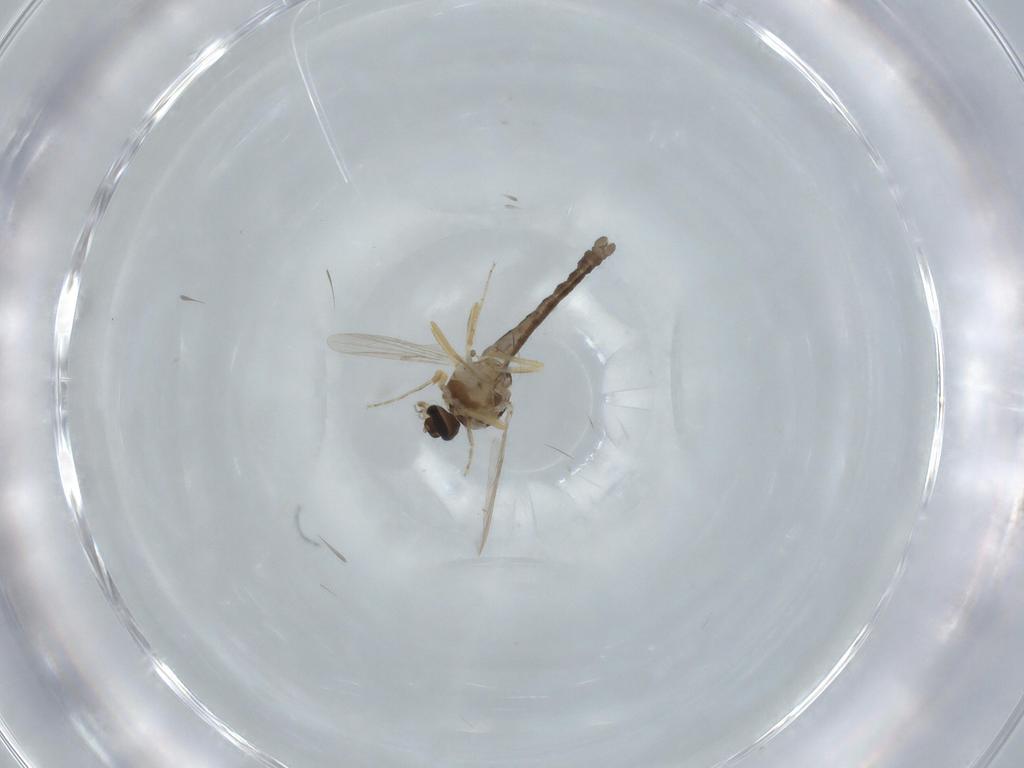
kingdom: Animalia
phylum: Arthropoda
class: Insecta
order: Diptera
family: Ceratopogonidae
